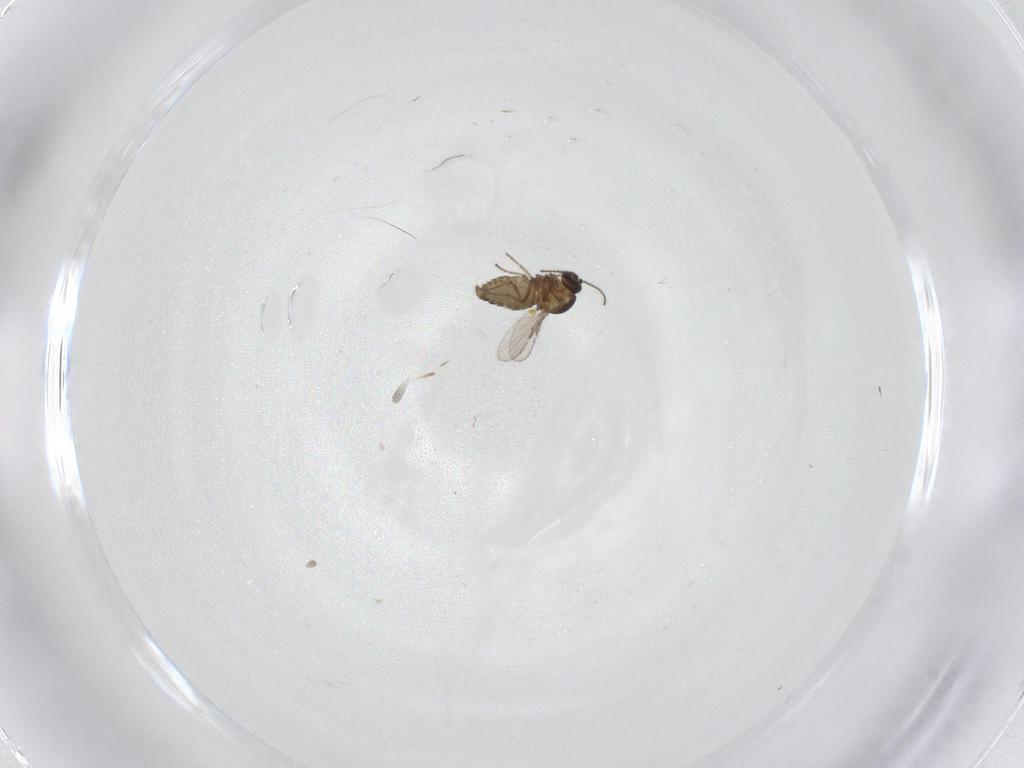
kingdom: Animalia
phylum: Arthropoda
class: Insecta
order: Diptera
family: Ceratopogonidae
